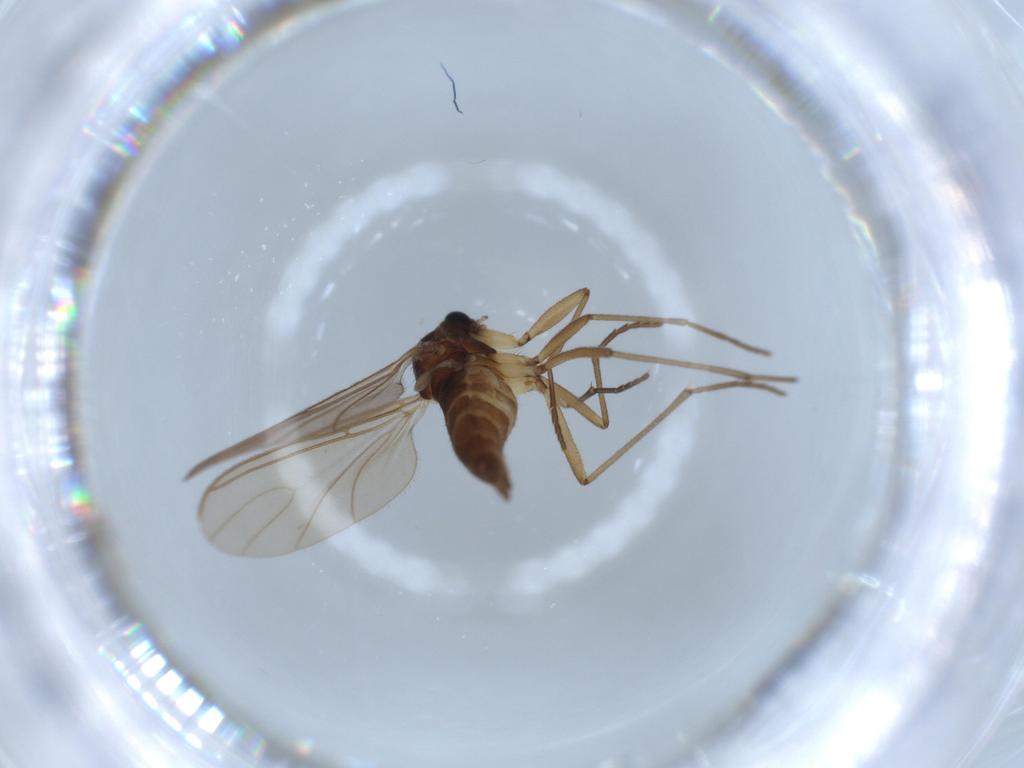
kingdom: Animalia
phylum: Arthropoda
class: Insecta
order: Diptera
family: Sciaridae
